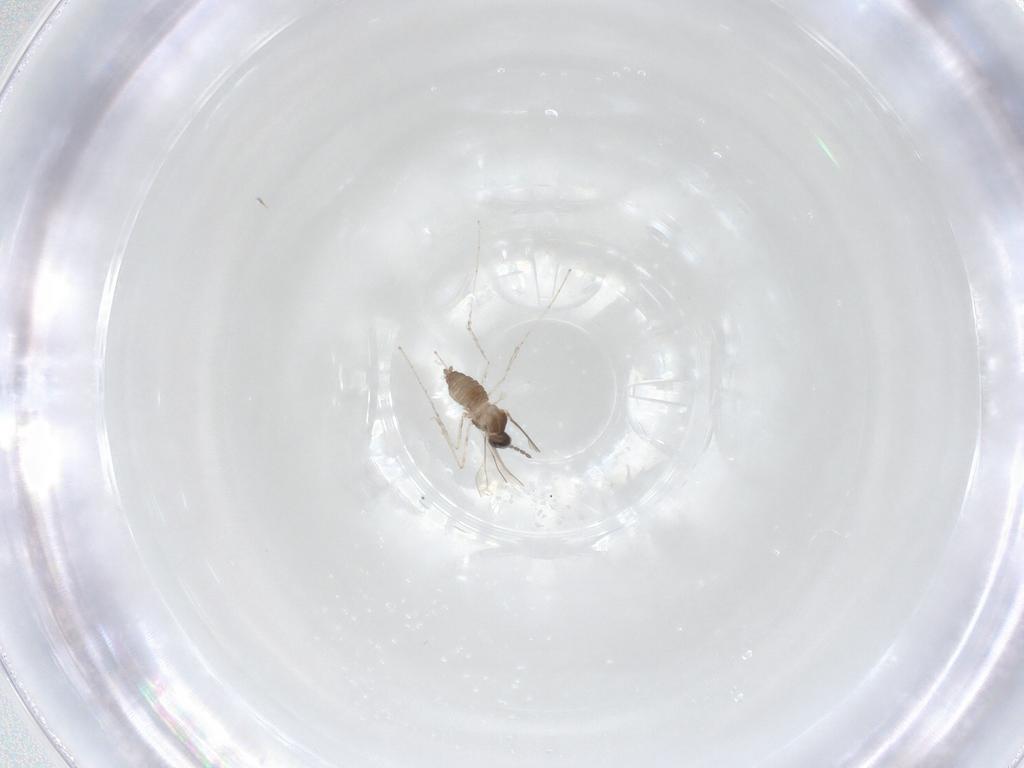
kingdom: Animalia
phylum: Arthropoda
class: Insecta
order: Diptera
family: Cecidomyiidae
